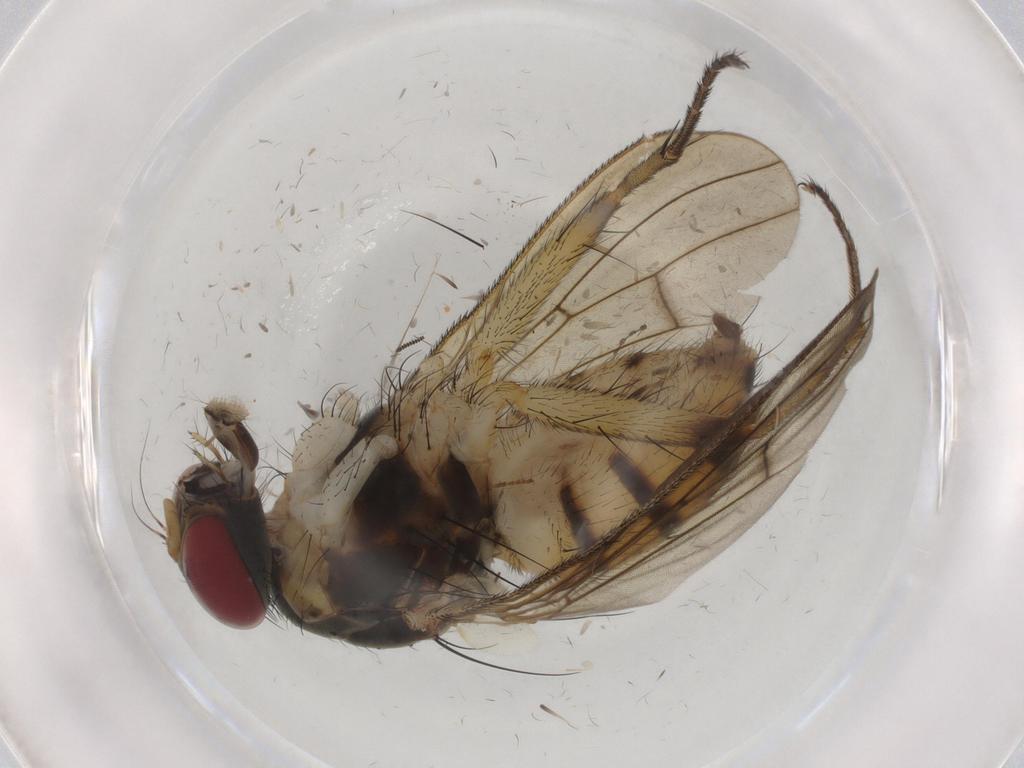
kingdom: Animalia
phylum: Arthropoda
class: Insecta
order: Diptera
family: Muscidae
